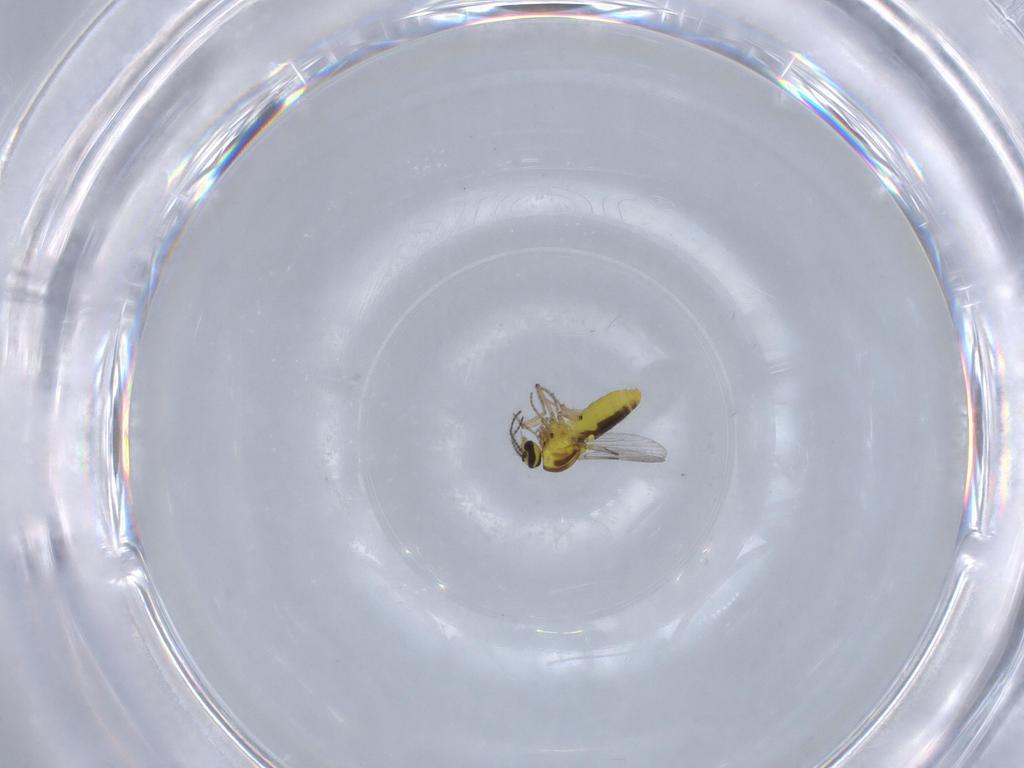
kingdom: Animalia
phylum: Arthropoda
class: Insecta
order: Diptera
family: Ceratopogonidae
